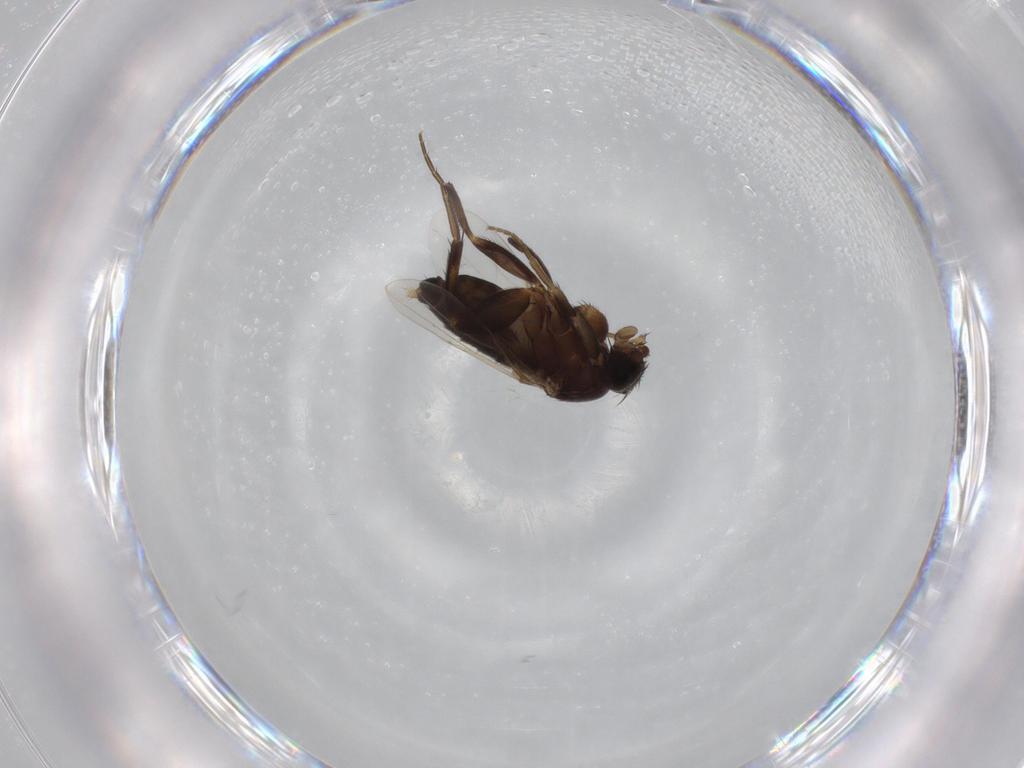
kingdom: Animalia
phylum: Arthropoda
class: Insecta
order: Diptera
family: Phoridae
